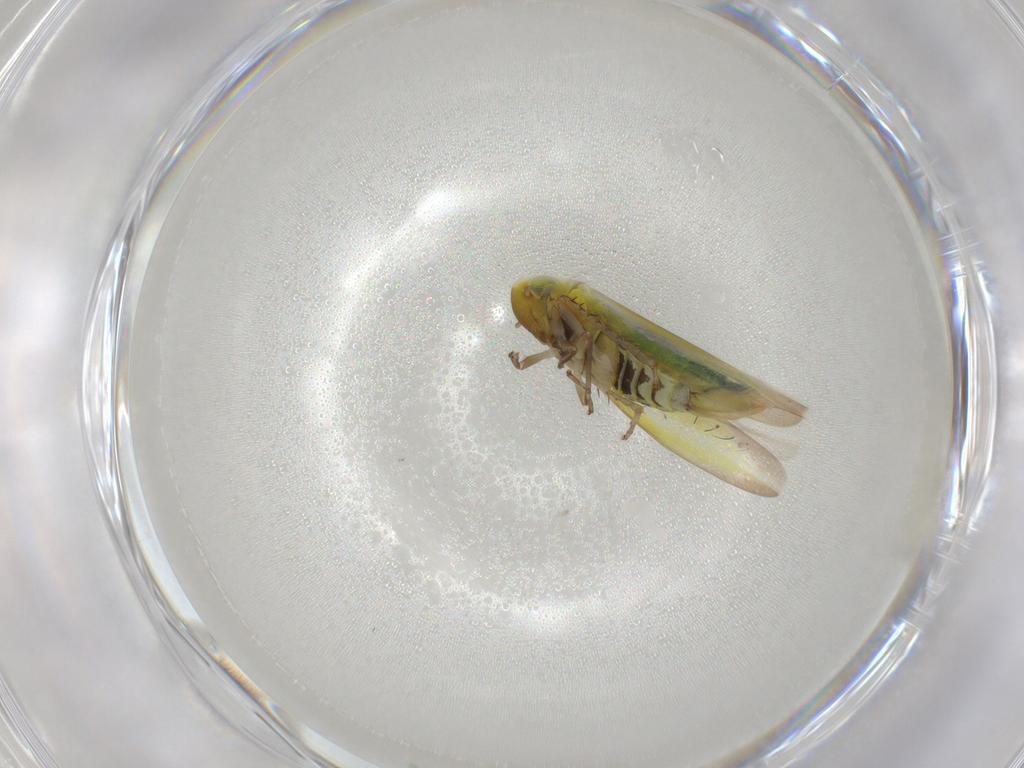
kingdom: Animalia
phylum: Arthropoda
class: Insecta
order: Hemiptera
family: Cicadellidae
